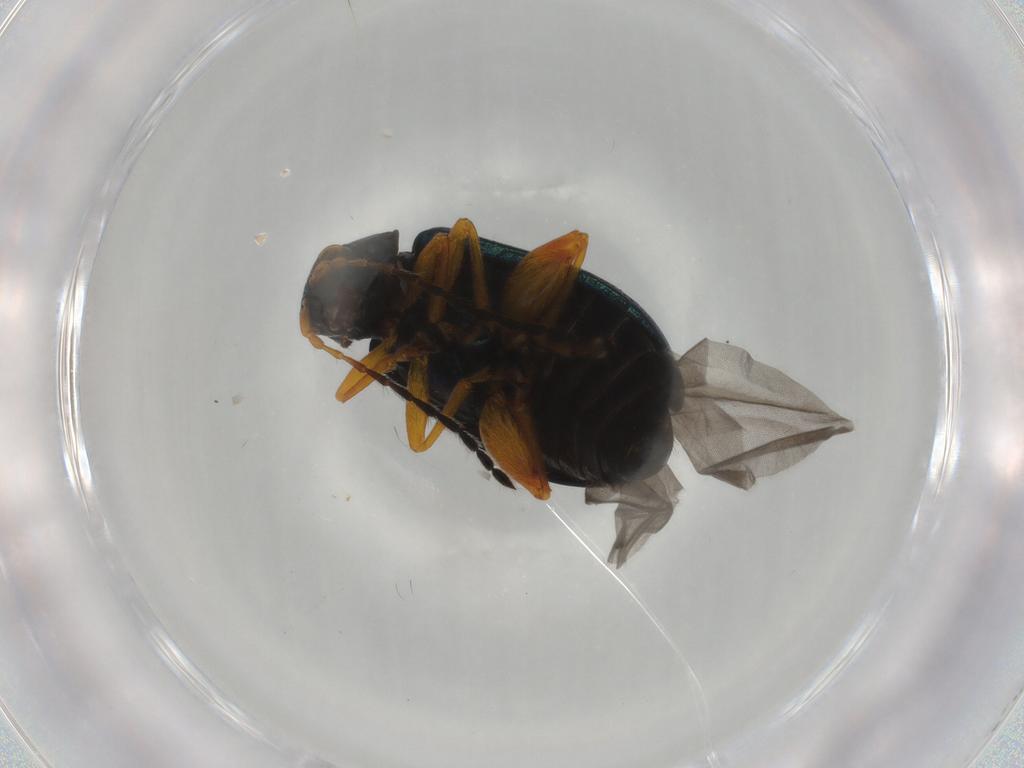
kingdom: Animalia
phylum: Arthropoda
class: Insecta
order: Coleoptera
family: Chrysomelidae
